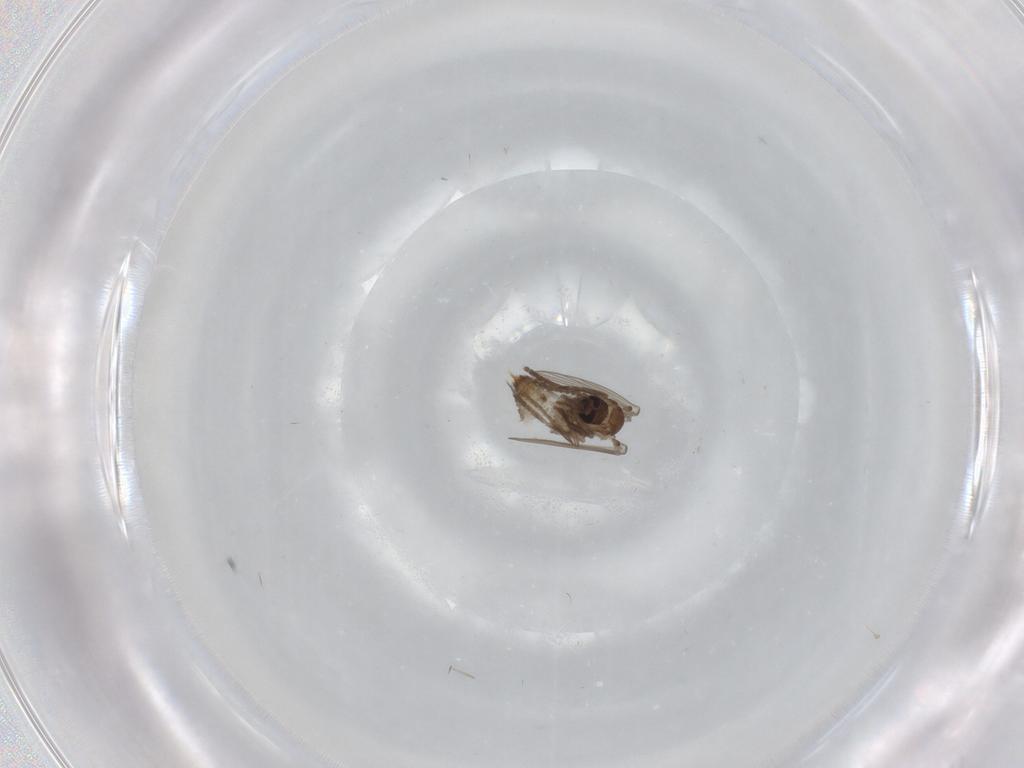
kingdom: Animalia
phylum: Arthropoda
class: Insecta
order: Diptera
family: Psychodidae
